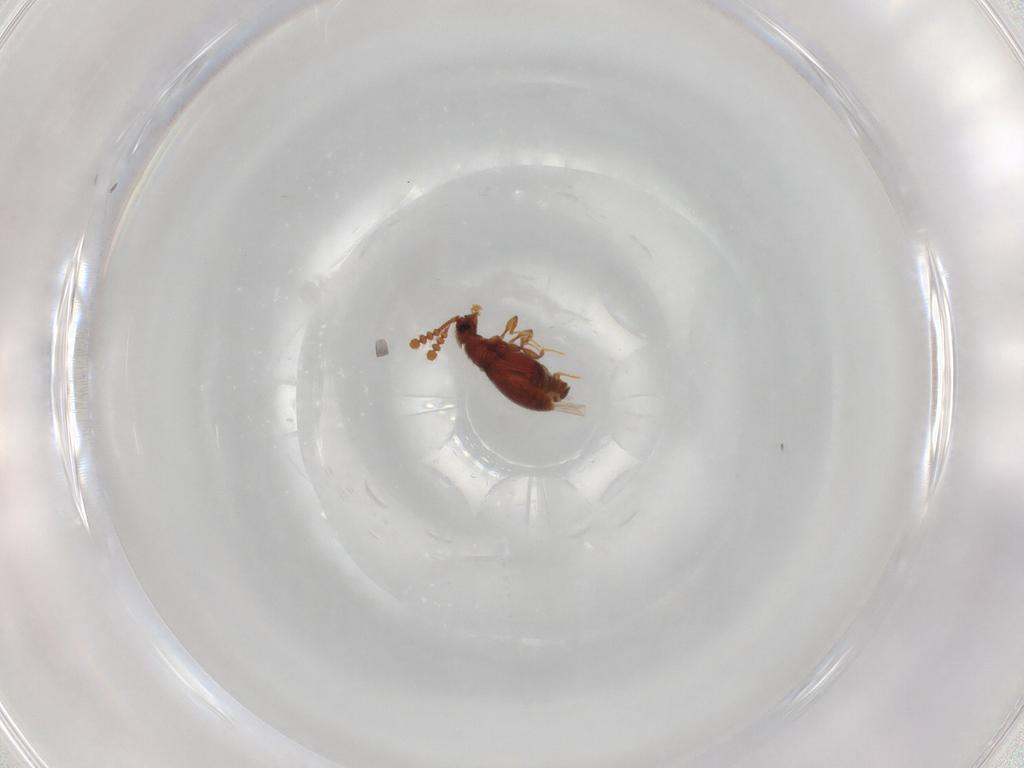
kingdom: Animalia
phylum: Arthropoda
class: Insecta
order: Coleoptera
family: Staphylinidae
